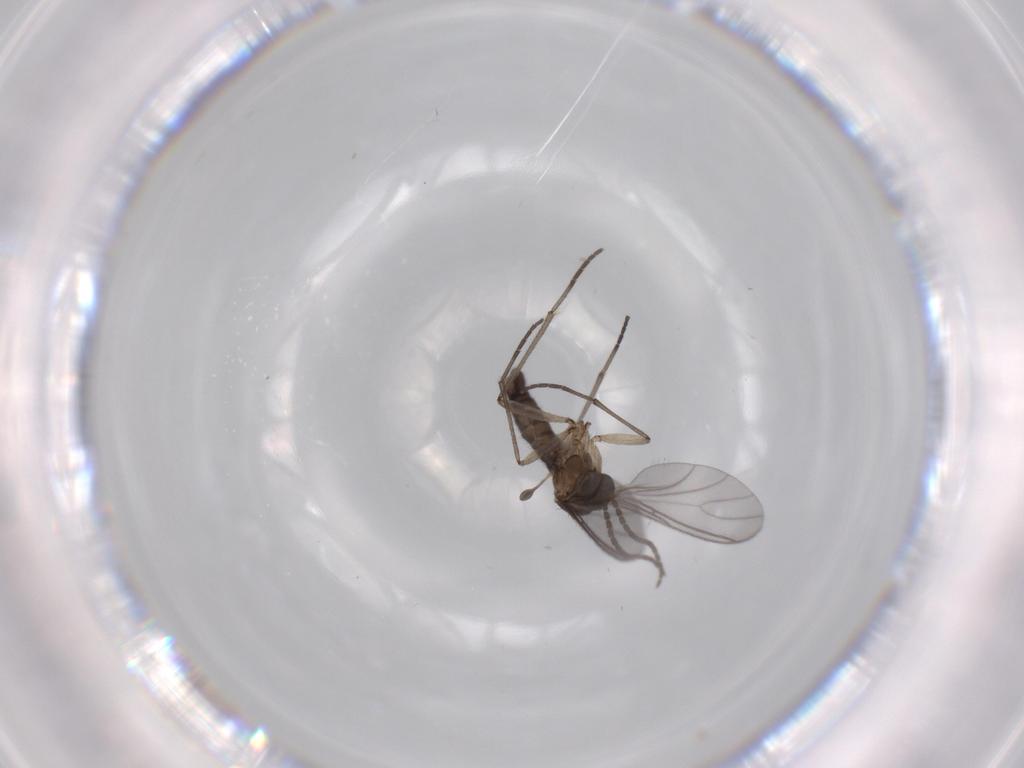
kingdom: Animalia
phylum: Arthropoda
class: Insecta
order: Diptera
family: Sciaridae
